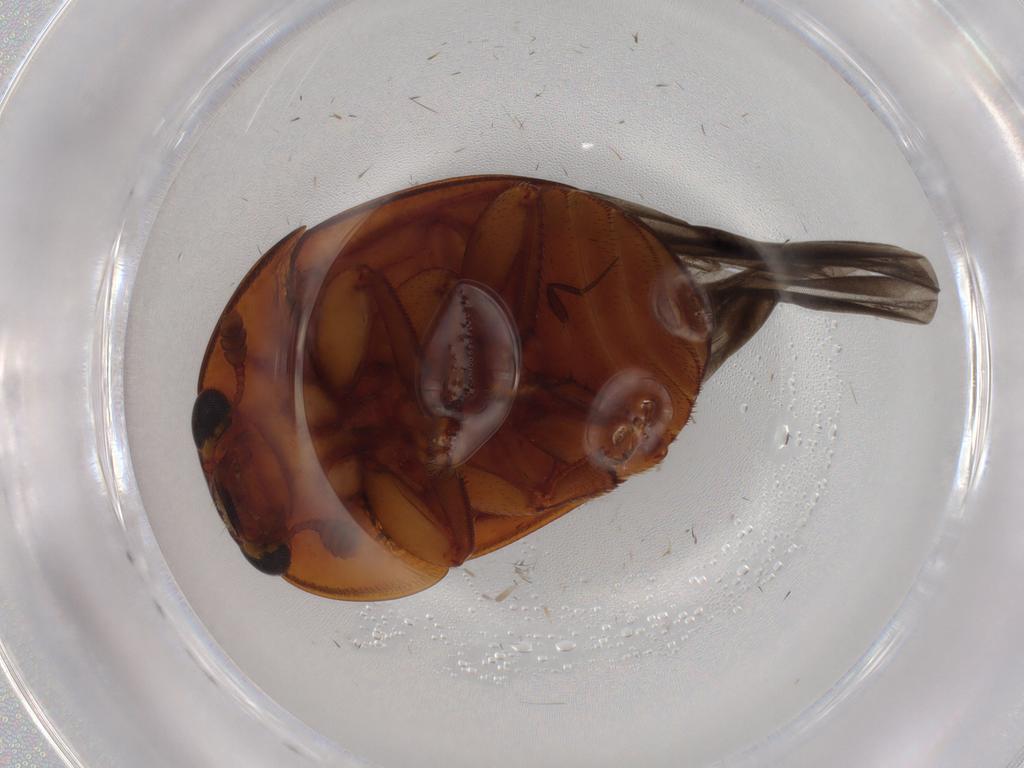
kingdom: Animalia
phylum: Arthropoda
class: Insecta
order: Coleoptera
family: Nitidulidae
